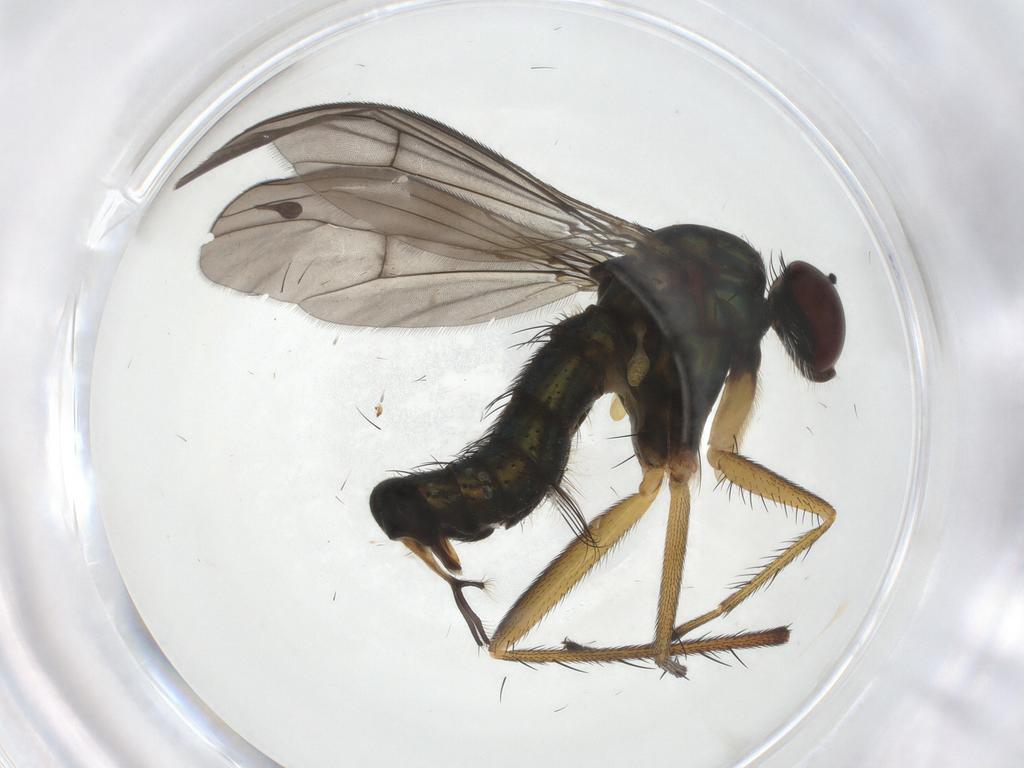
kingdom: Animalia
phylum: Arthropoda
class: Insecta
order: Diptera
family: Dolichopodidae
